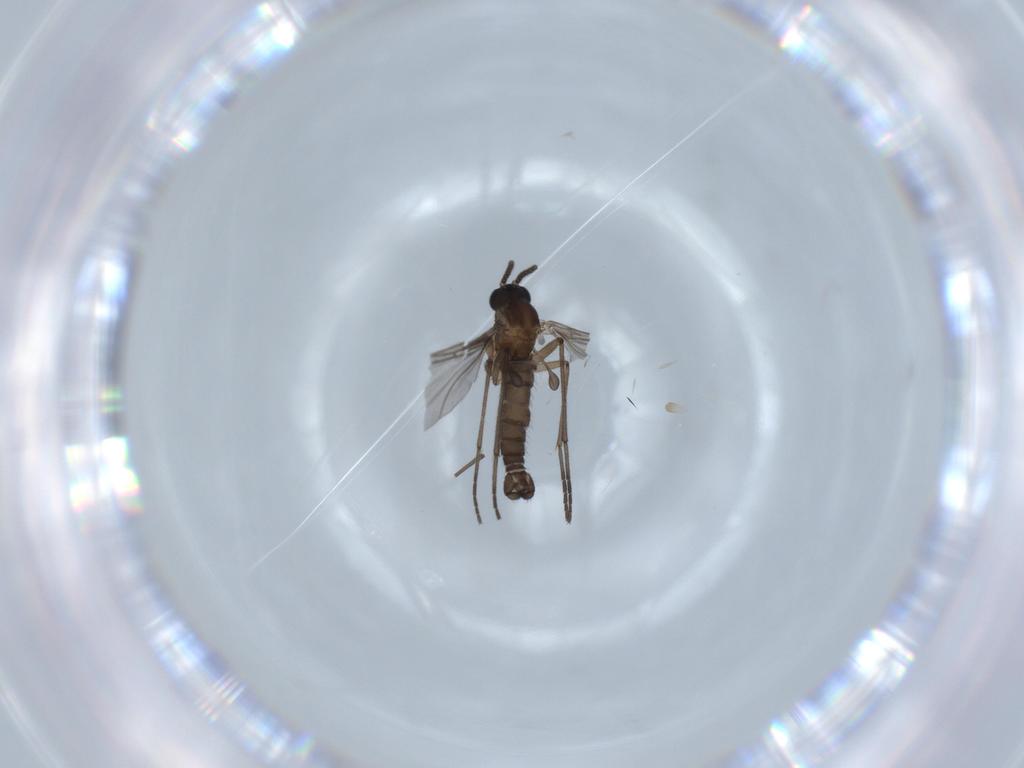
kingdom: Animalia
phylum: Arthropoda
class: Insecta
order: Diptera
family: Sciaridae
